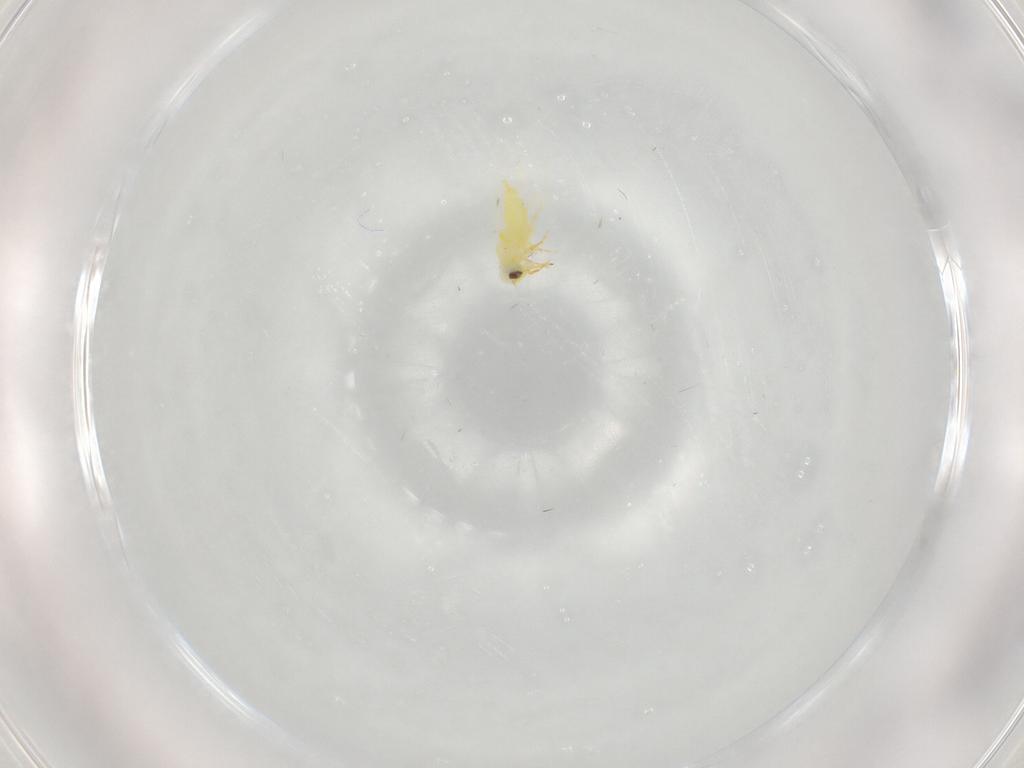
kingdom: Animalia
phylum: Arthropoda
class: Insecta
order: Hemiptera
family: Aleyrodidae
